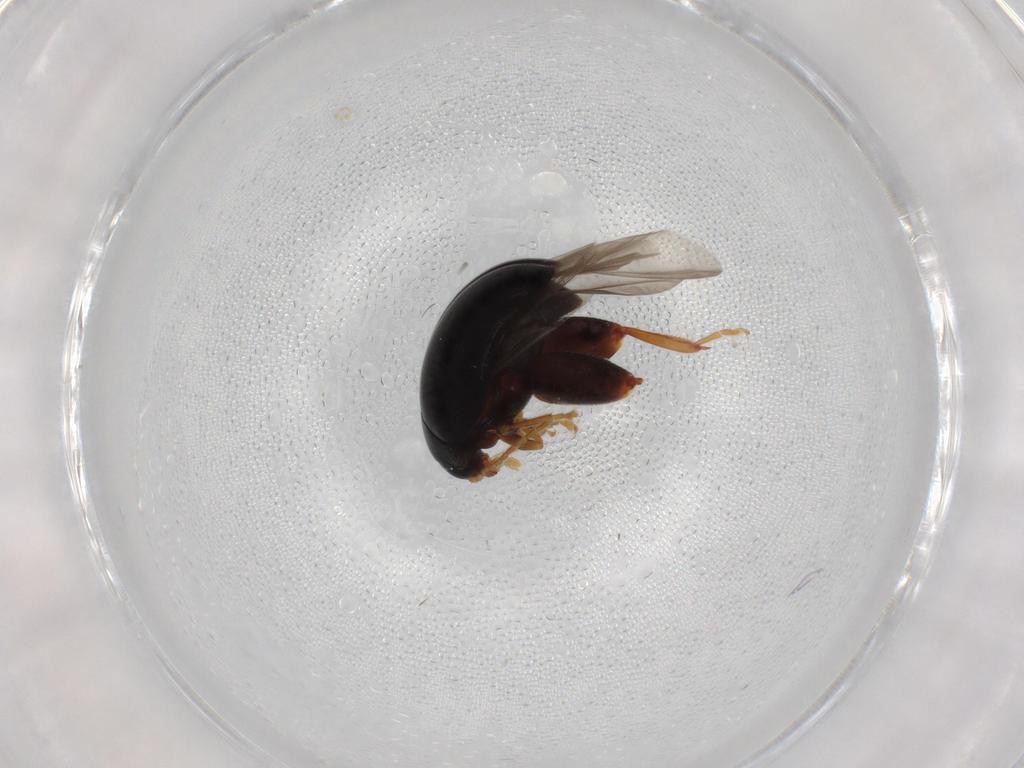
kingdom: Animalia
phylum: Arthropoda
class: Insecta
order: Coleoptera
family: Chrysomelidae
